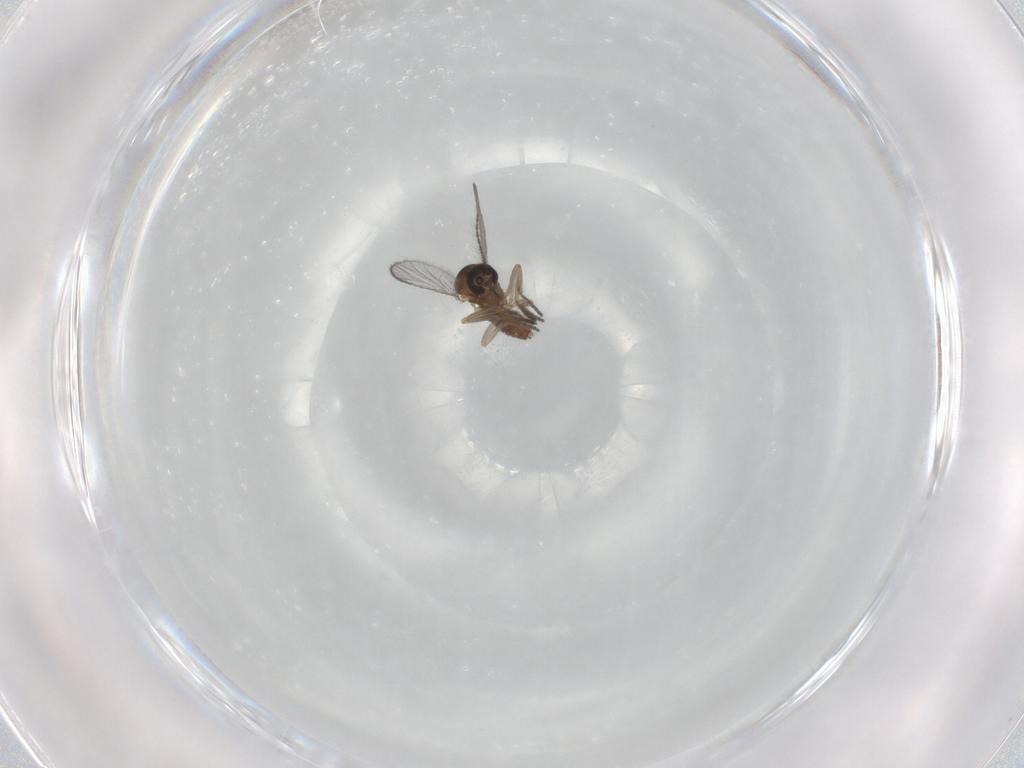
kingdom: Animalia
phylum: Arthropoda
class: Insecta
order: Diptera
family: Ceratopogonidae
